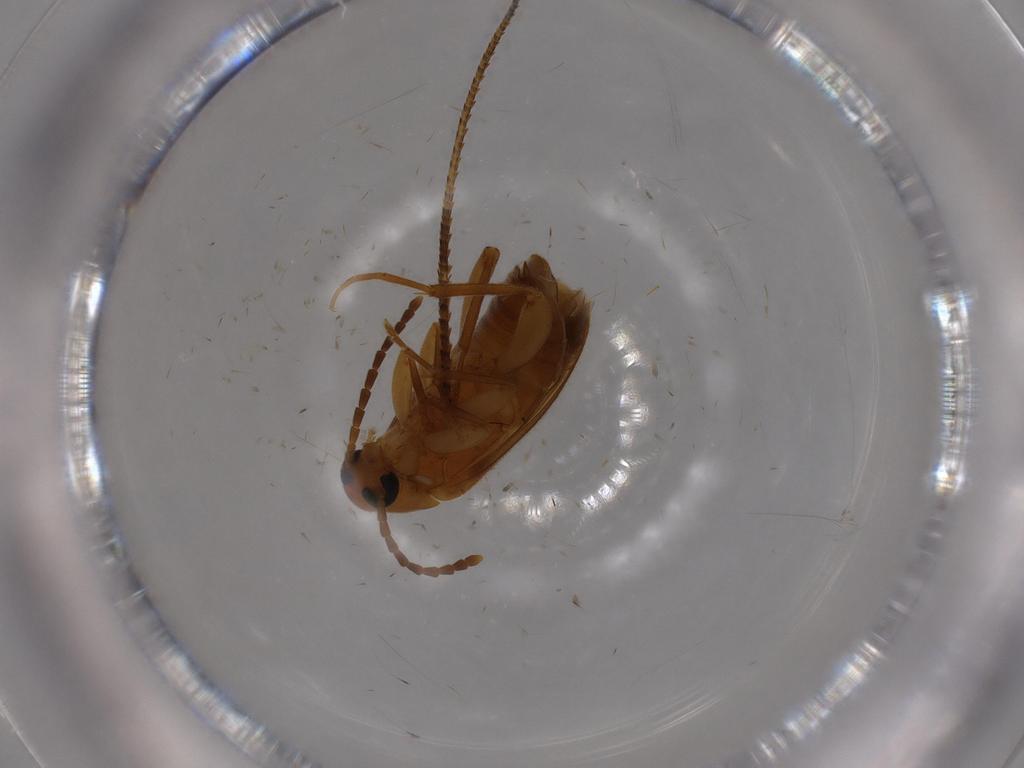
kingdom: Animalia
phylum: Arthropoda
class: Insecta
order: Coleoptera
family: Scraptiidae
